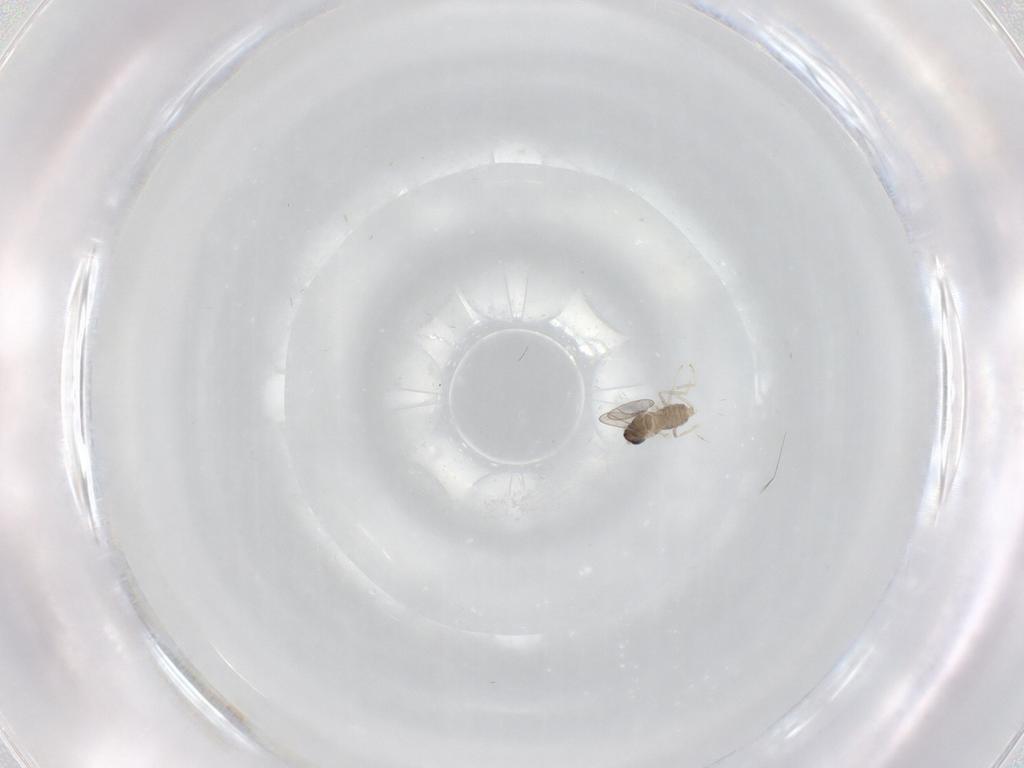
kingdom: Animalia
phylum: Arthropoda
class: Insecta
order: Diptera
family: Cecidomyiidae
